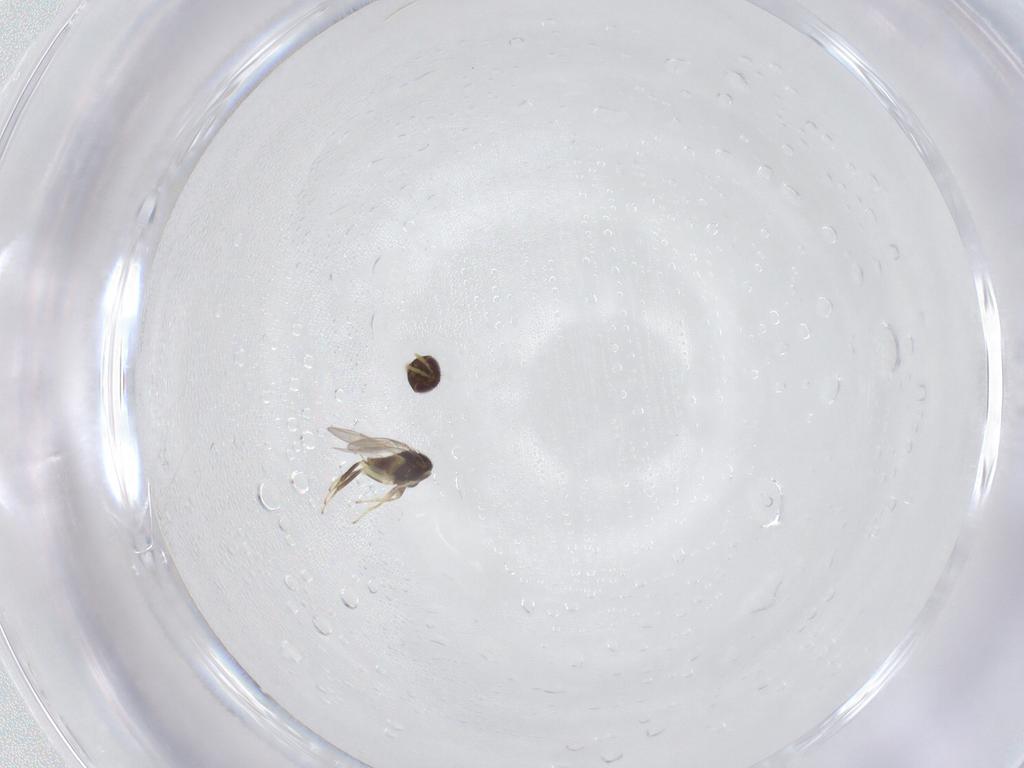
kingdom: Animalia
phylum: Arthropoda
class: Insecta
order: Hymenoptera
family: Aphelinidae
